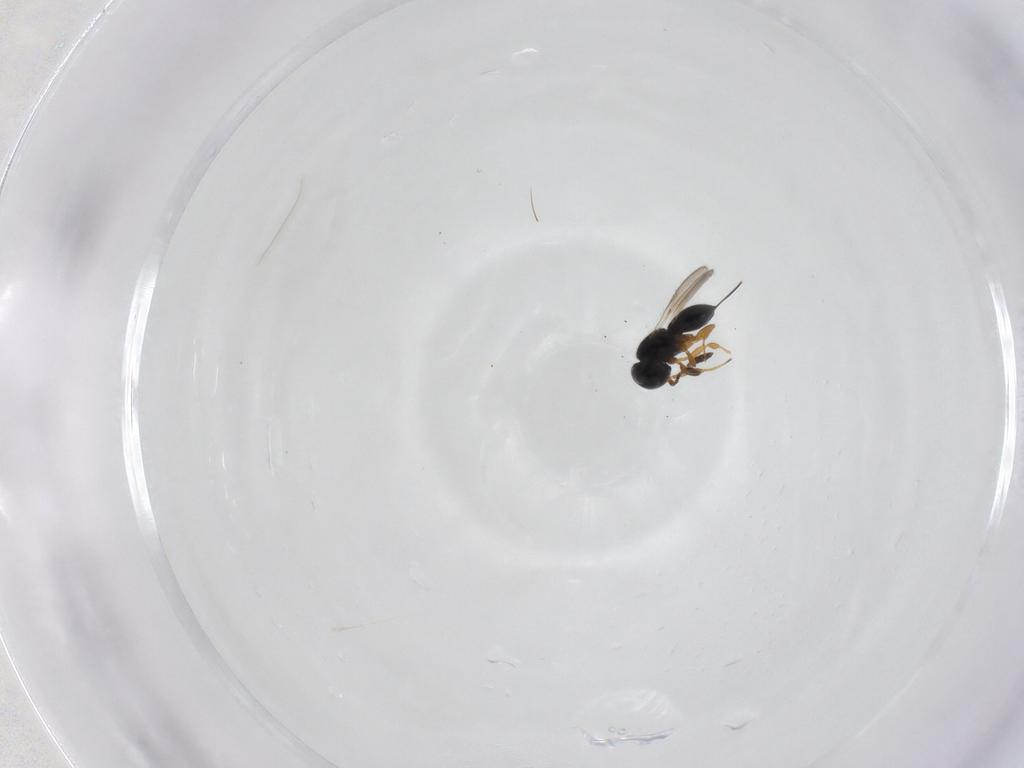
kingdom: Animalia
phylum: Arthropoda
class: Insecta
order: Hymenoptera
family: Scelionidae
